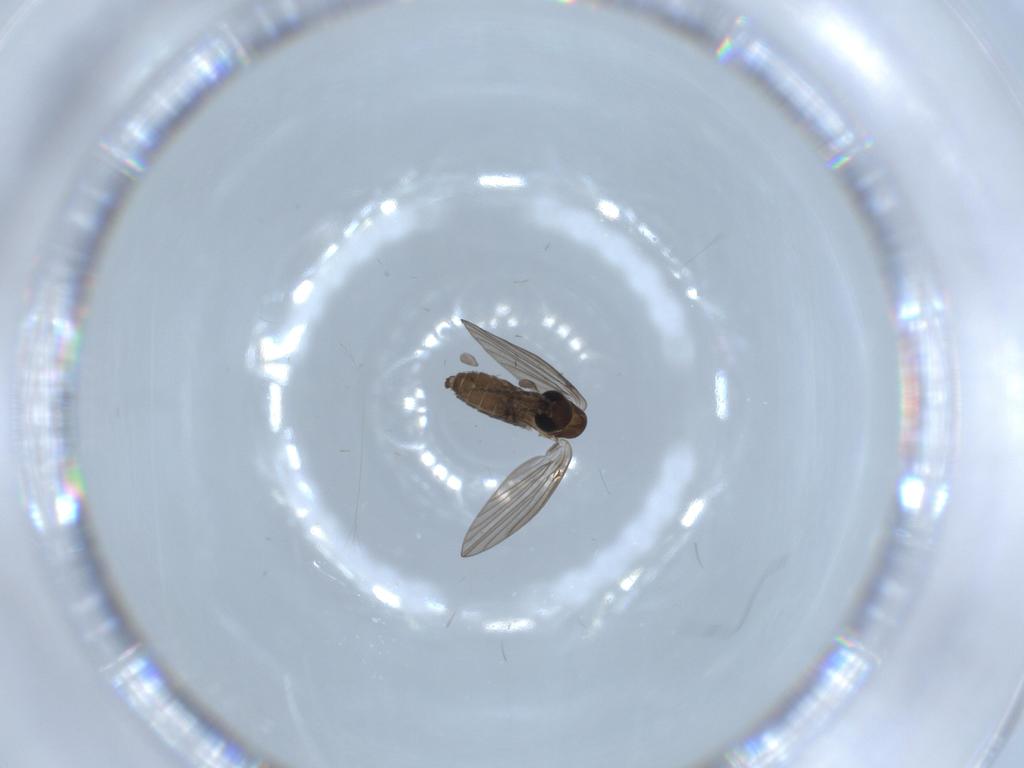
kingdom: Animalia
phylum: Arthropoda
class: Insecta
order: Diptera
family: Psychodidae
